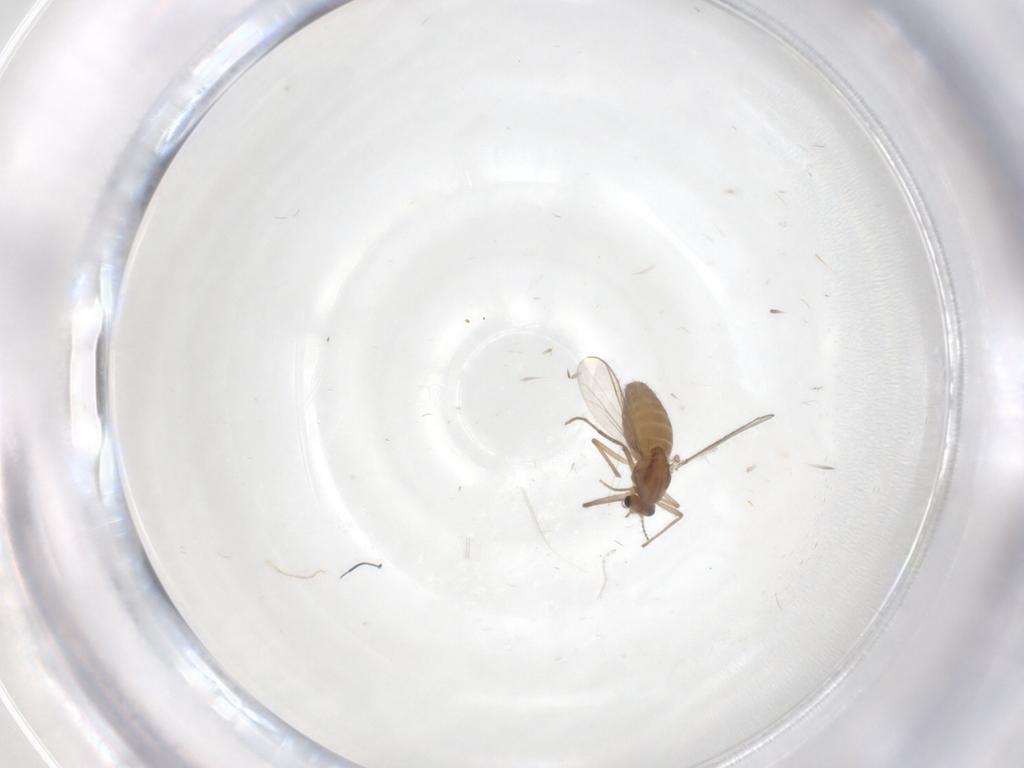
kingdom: Animalia
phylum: Arthropoda
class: Insecta
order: Diptera
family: Chironomidae
